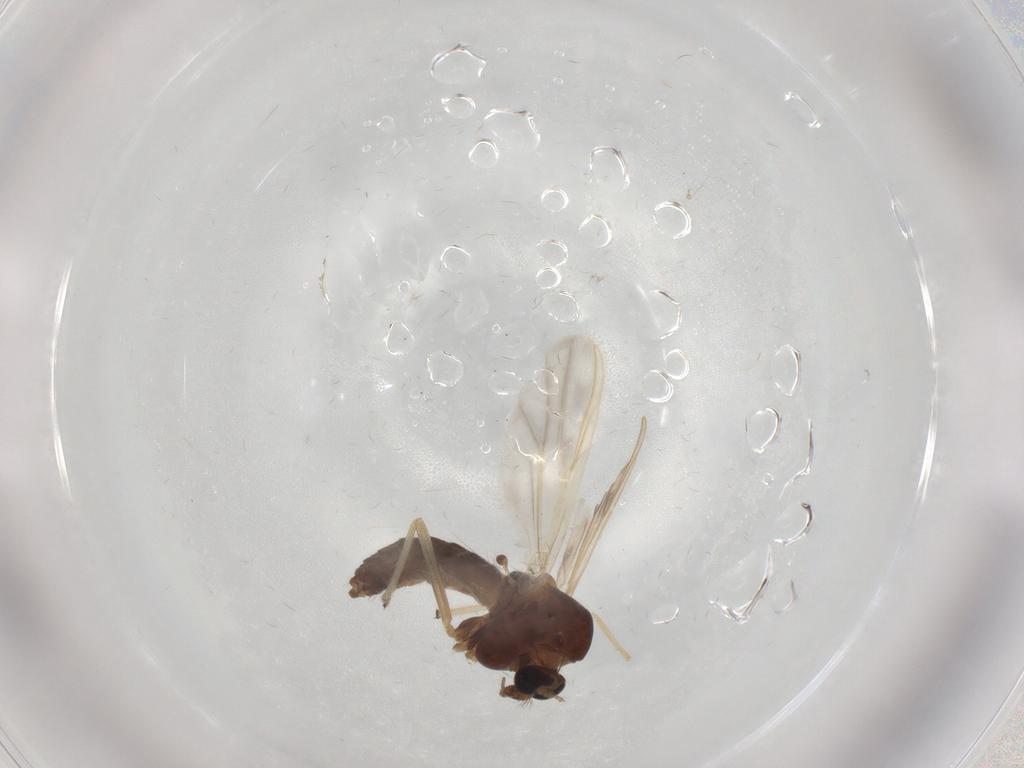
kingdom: Animalia
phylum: Arthropoda
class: Insecta
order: Diptera
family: Chironomidae
